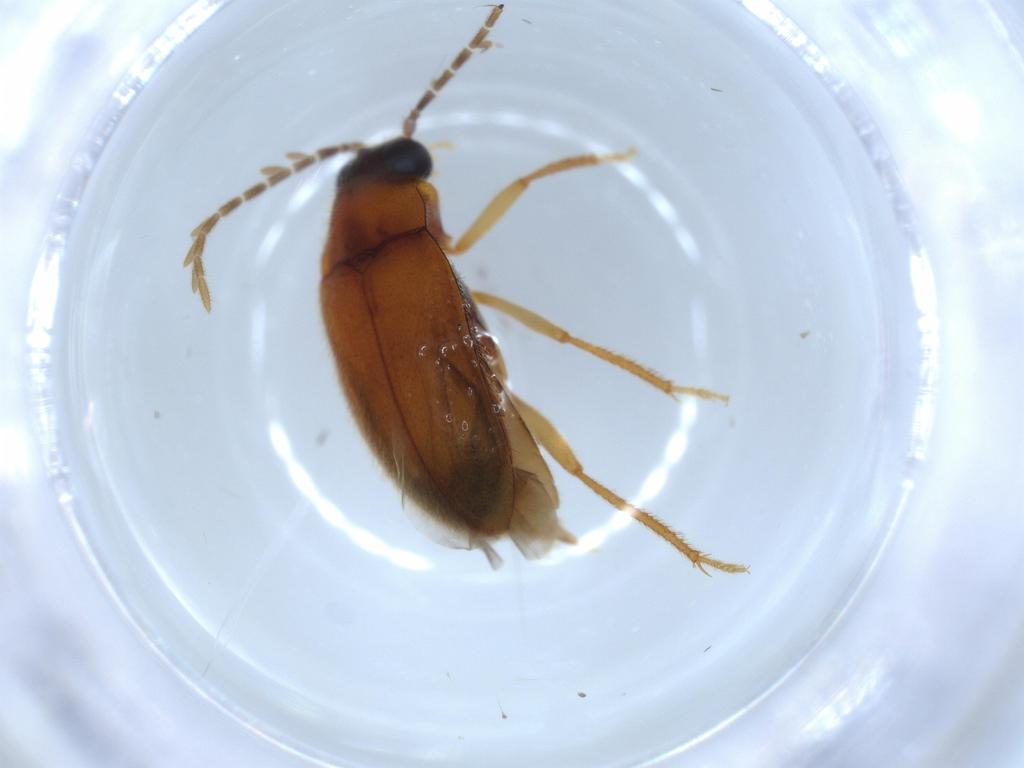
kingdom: Animalia
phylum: Arthropoda
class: Insecta
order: Coleoptera
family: Ptilodactylidae
